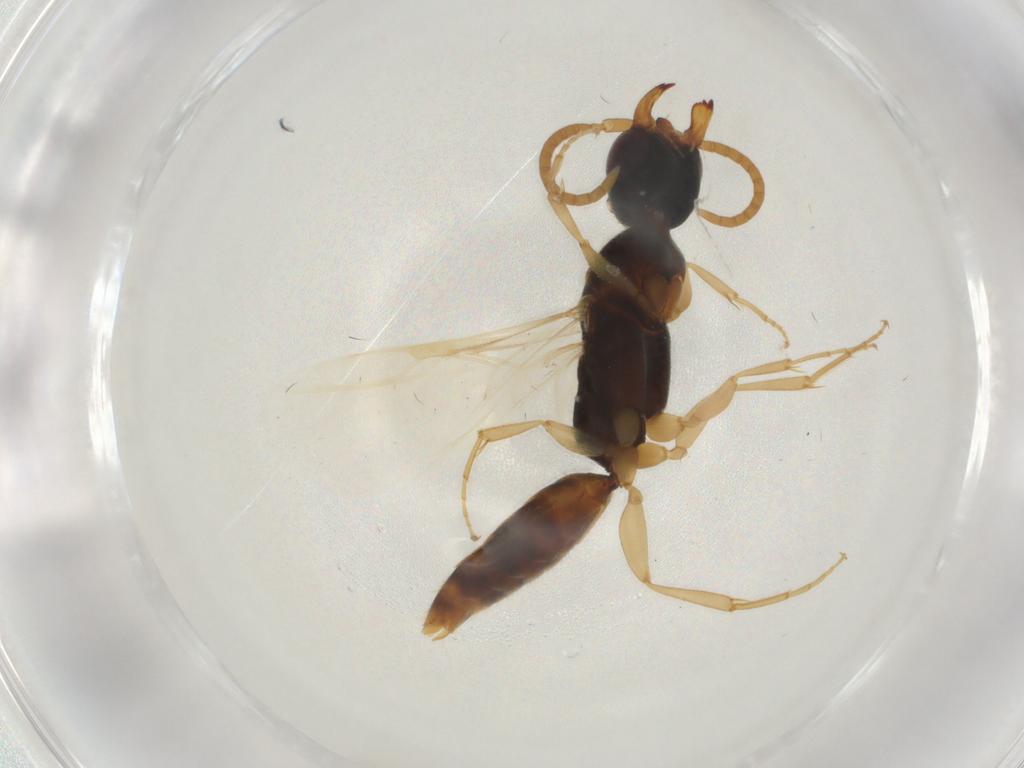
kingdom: Animalia
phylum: Arthropoda
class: Insecta
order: Hymenoptera
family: Bethylidae
